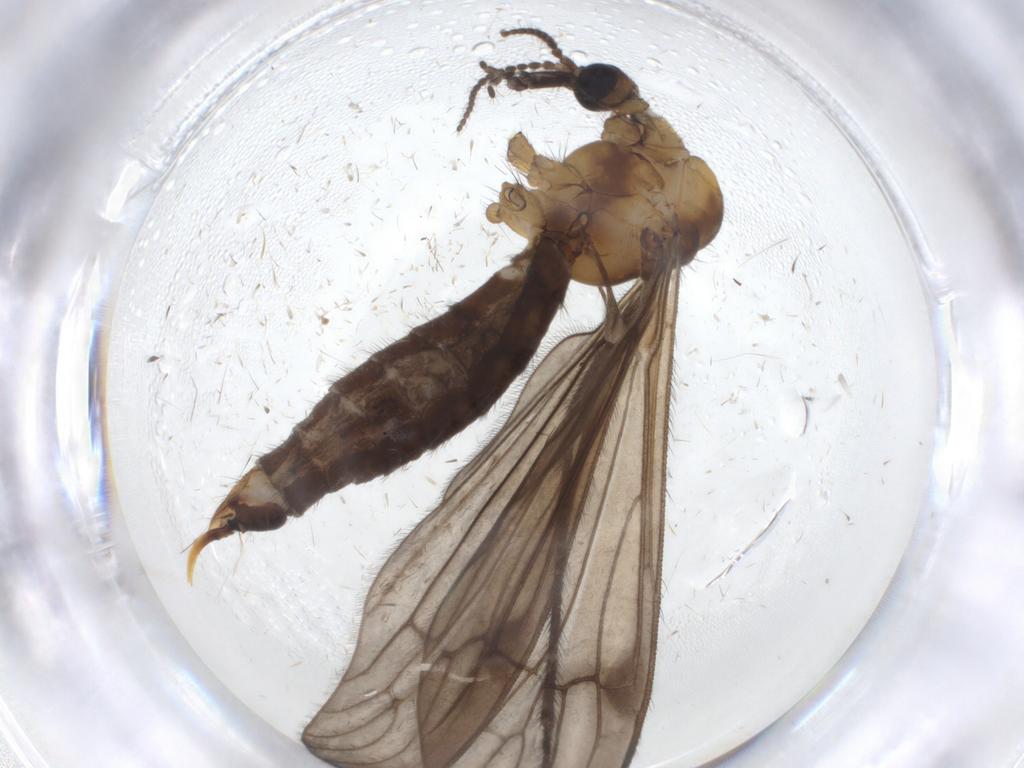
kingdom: Animalia
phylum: Arthropoda
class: Insecta
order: Diptera
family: Limoniidae
